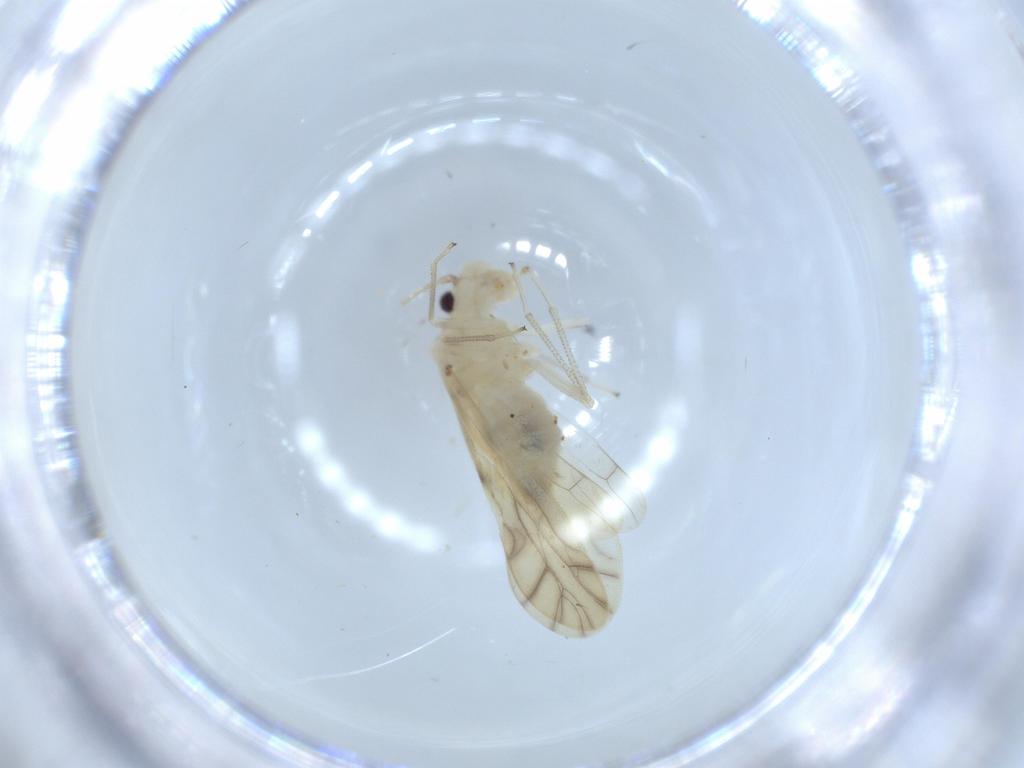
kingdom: Animalia
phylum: Arthropoda
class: Insecta
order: Psocodea
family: Caeciliusidae
